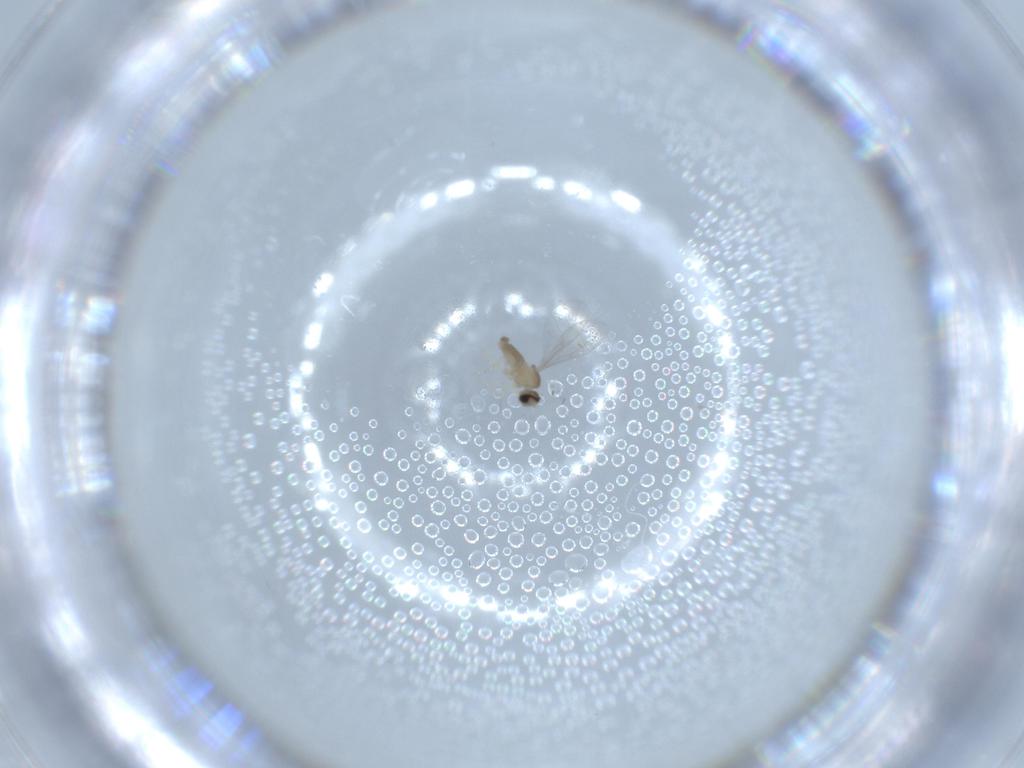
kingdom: Animalia
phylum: Arthropoda
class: Insecta
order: Diptera
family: Cecidomyiidae
